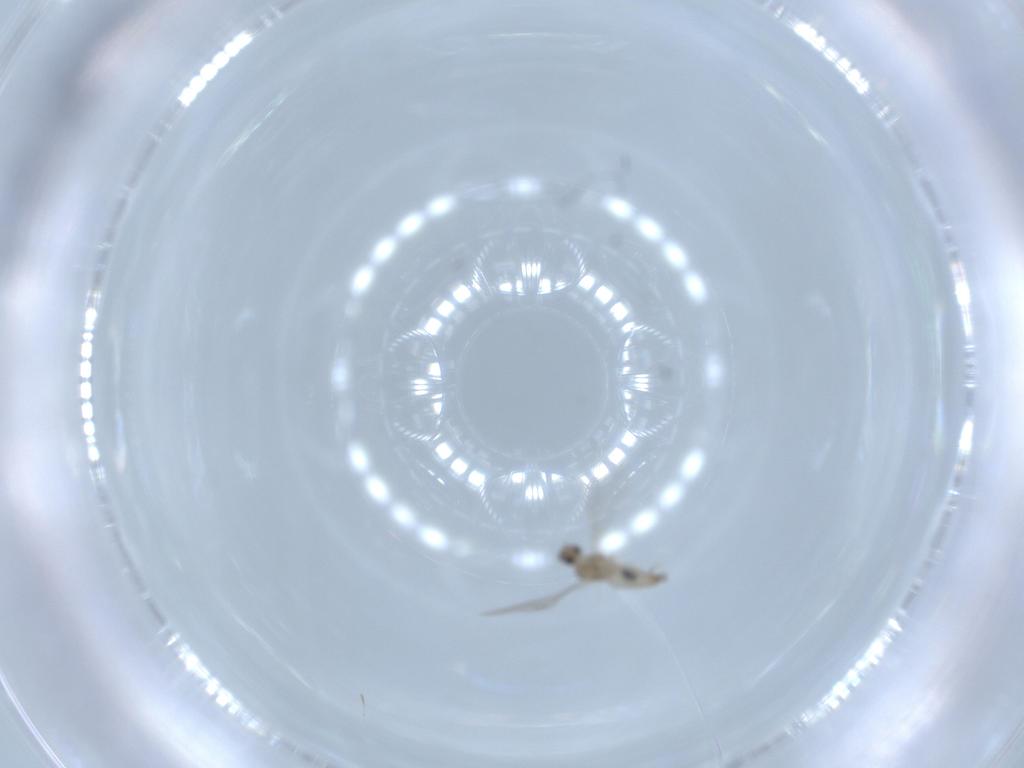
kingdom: Animalia
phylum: Arthropoda
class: Insecta
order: Diptera
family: Cecidomyiidae
